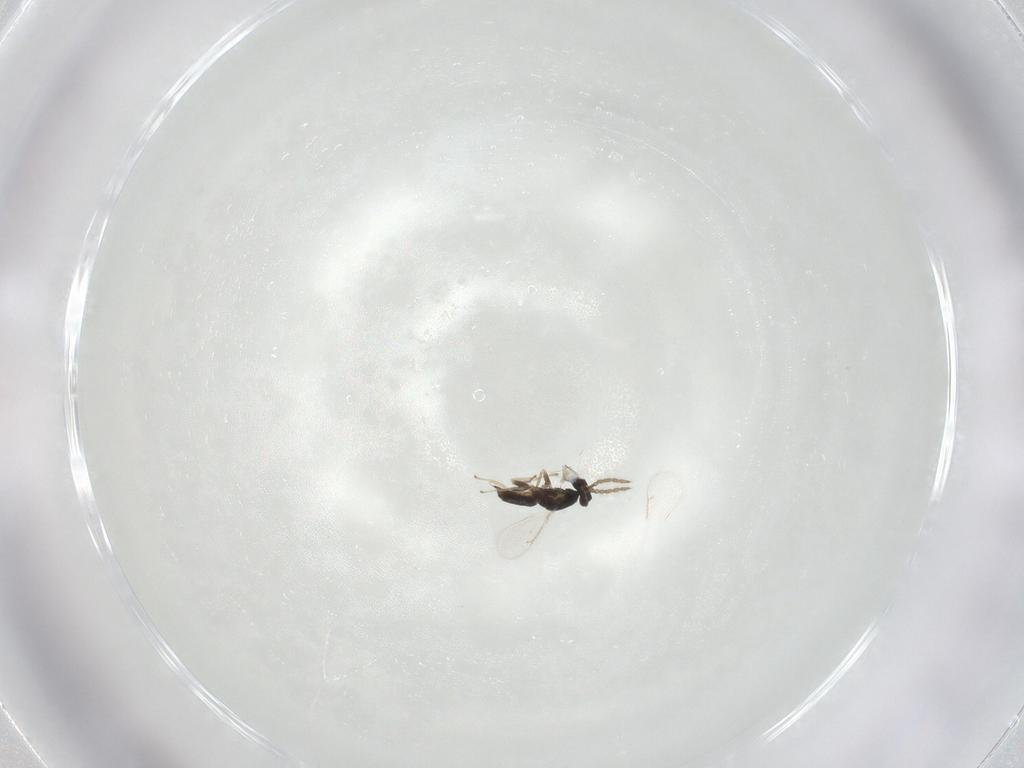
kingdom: Animalia
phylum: Arthropoda
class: Insecta
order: Hymenoptera
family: Eulophidae
